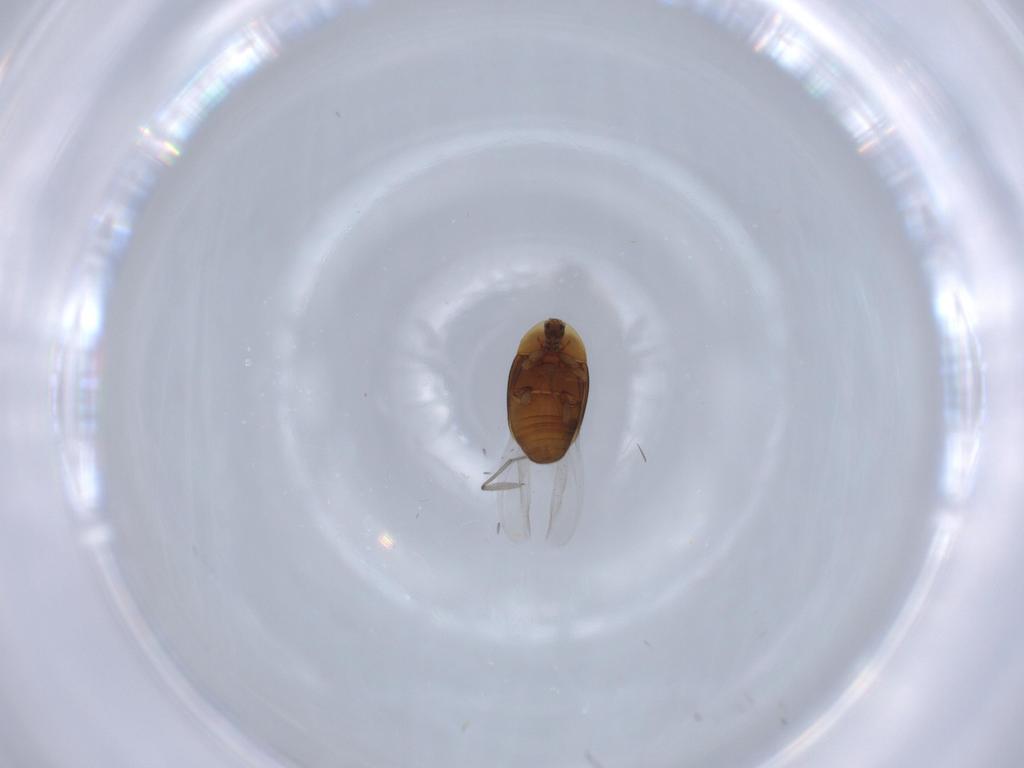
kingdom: Animalia
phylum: Arthropoda
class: Insecta
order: Coleoptera
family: Corylophidae
